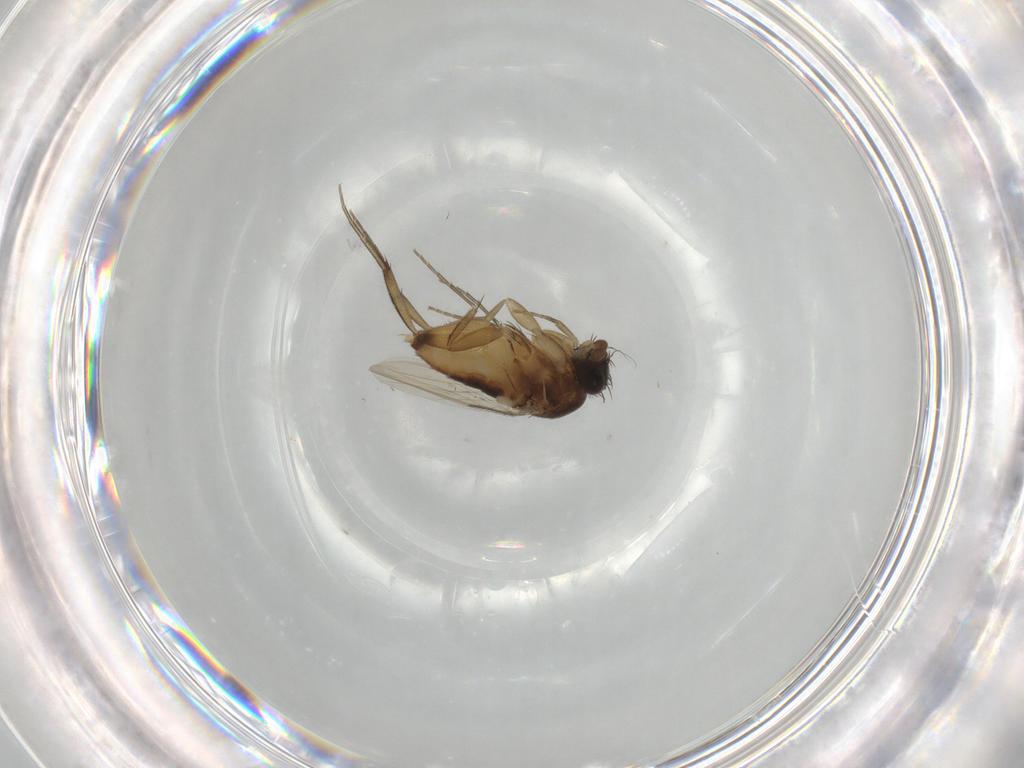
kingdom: Animalia
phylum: Arthropoda
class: Insecta
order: Diptera
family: Phoridae
